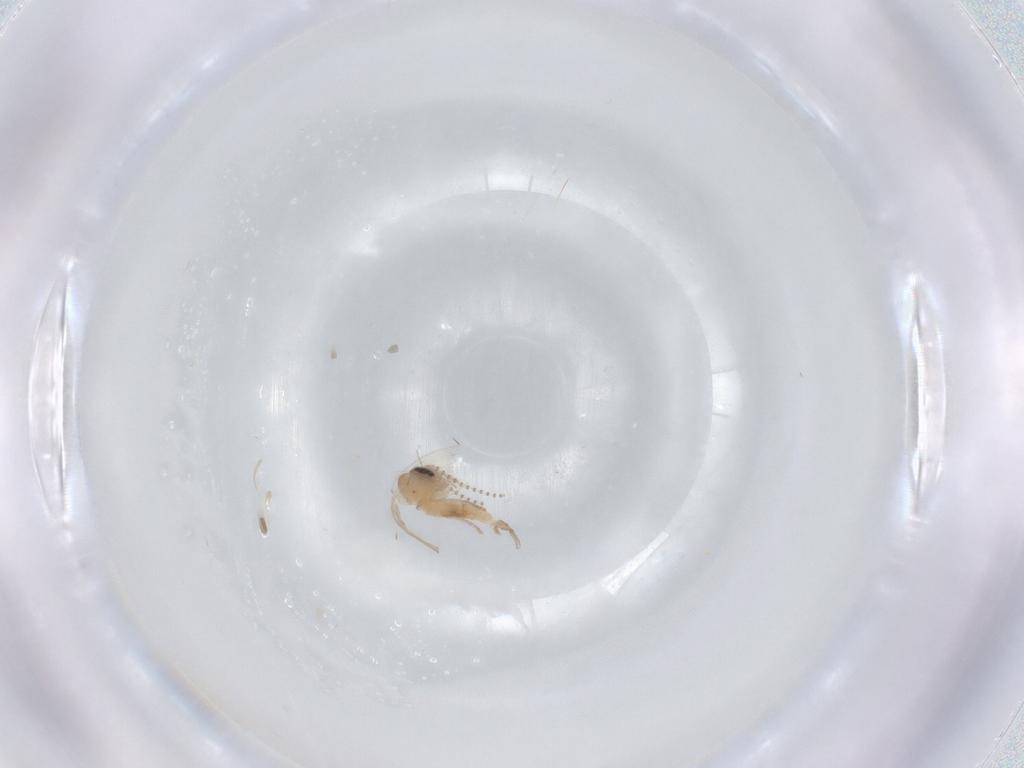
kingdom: Animalia
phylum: Arthropoda
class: Insecta
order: Diptera
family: Psychodidae
